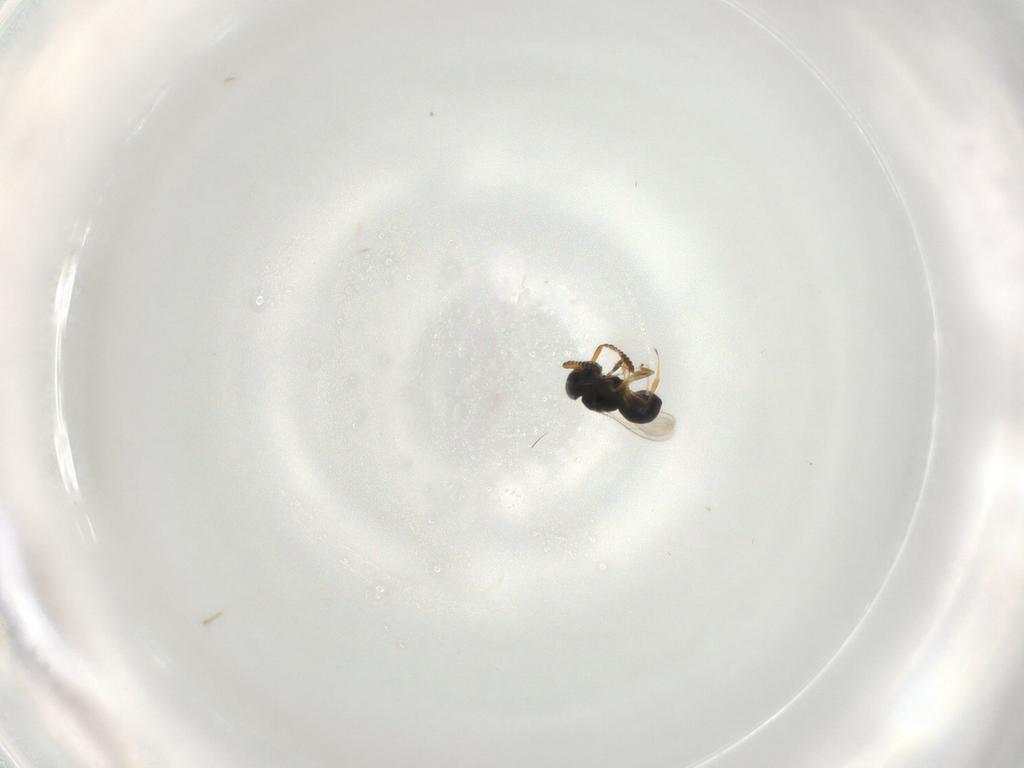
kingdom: Animalia
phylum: Arthropoda
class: Insecta
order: Hymenoptera
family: Scelionidae
